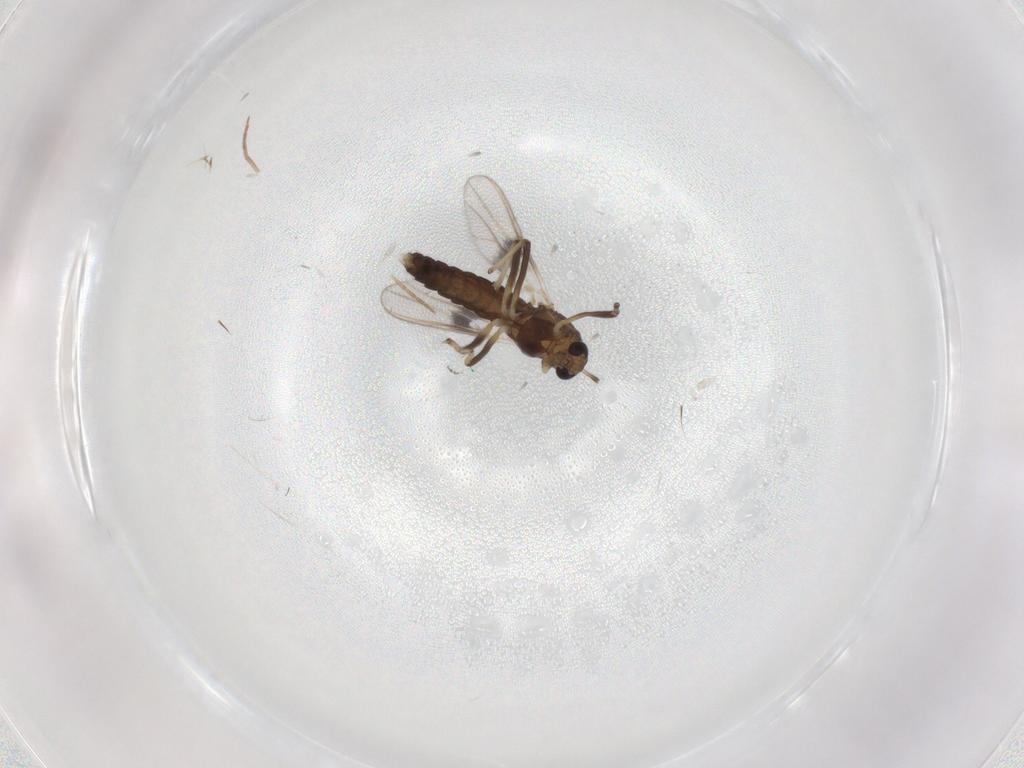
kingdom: Animalia
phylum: Arthropoda
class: Insecta
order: Diptera
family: Chironomidae
